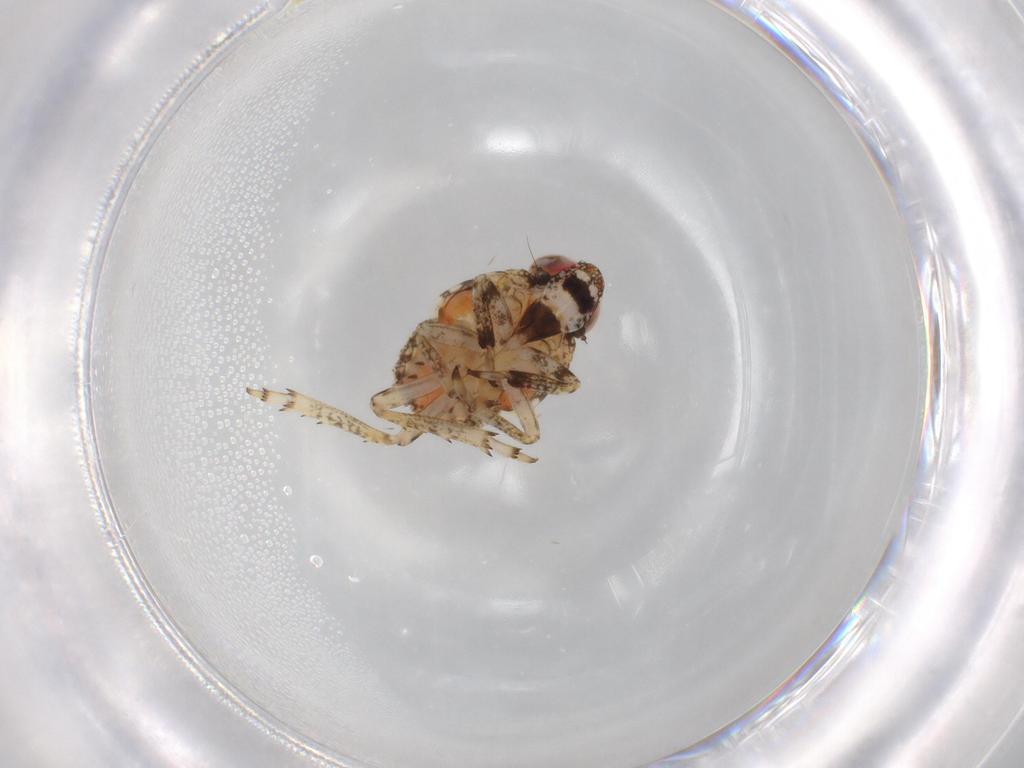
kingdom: Animalia
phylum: Arthropoda
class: Insecta
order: Hemiptera
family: Issidae
